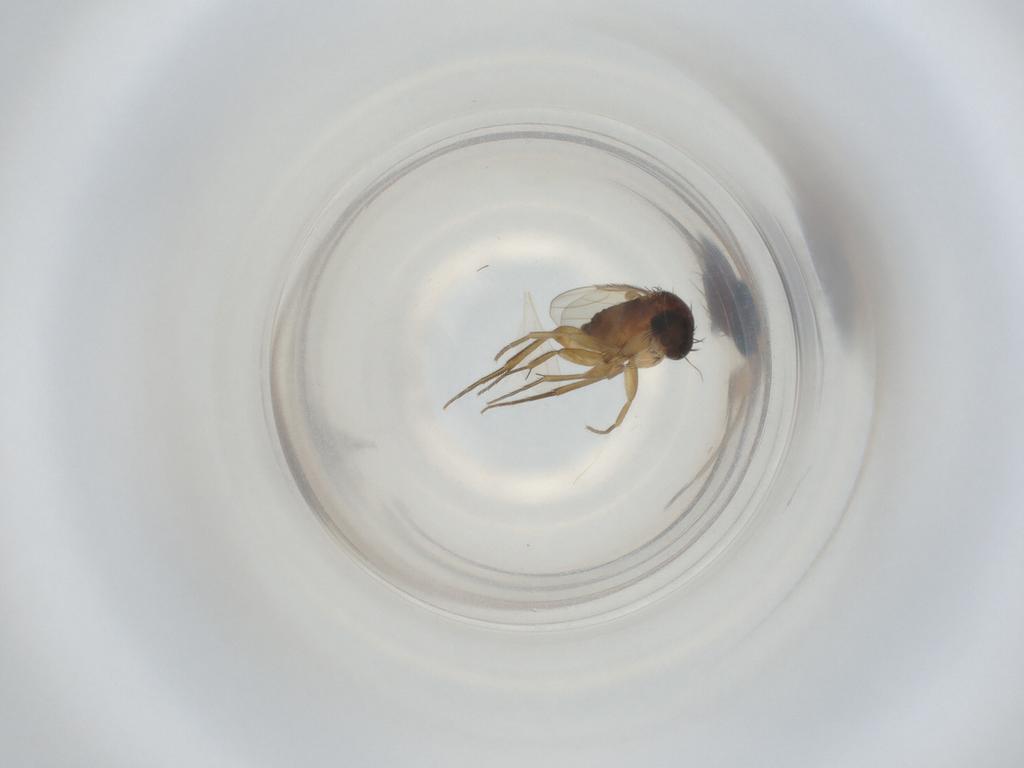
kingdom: Animalia
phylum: Arthropoda
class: Insecta
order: Diptera
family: Phoridae
